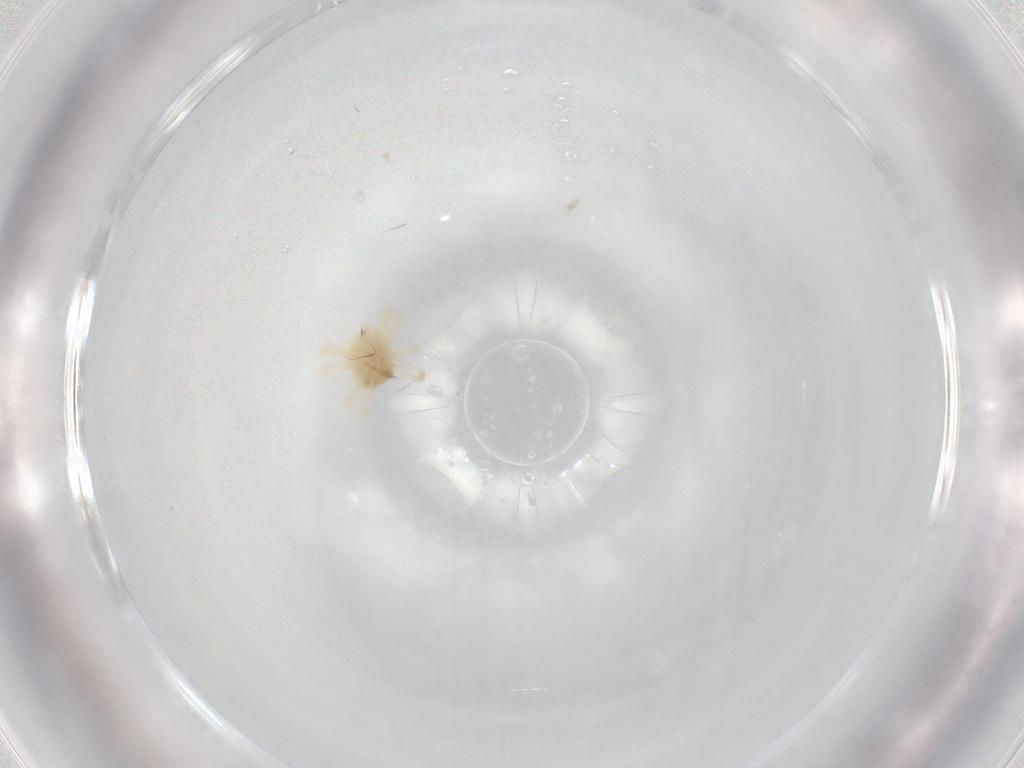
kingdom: Animalia
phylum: Arthropoda
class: Arachnida
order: Trombidiformes
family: Anystidae
